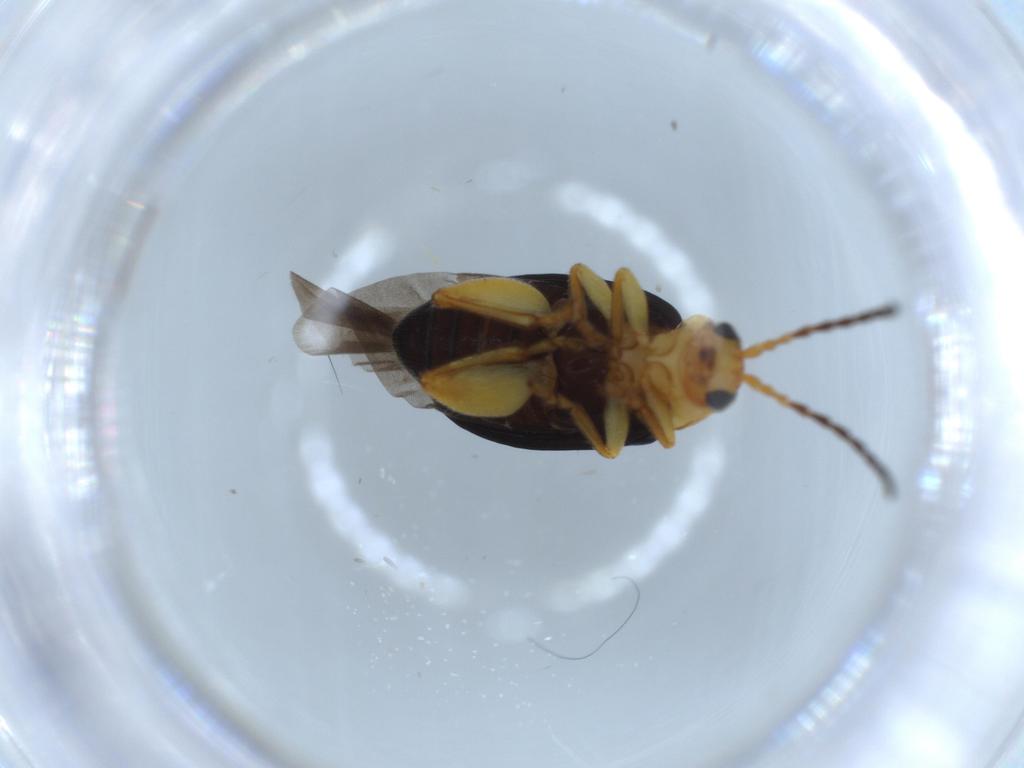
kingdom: Animalia
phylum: Arthropoda
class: Insecta
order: Coleoptera
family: Chrysomelidae
